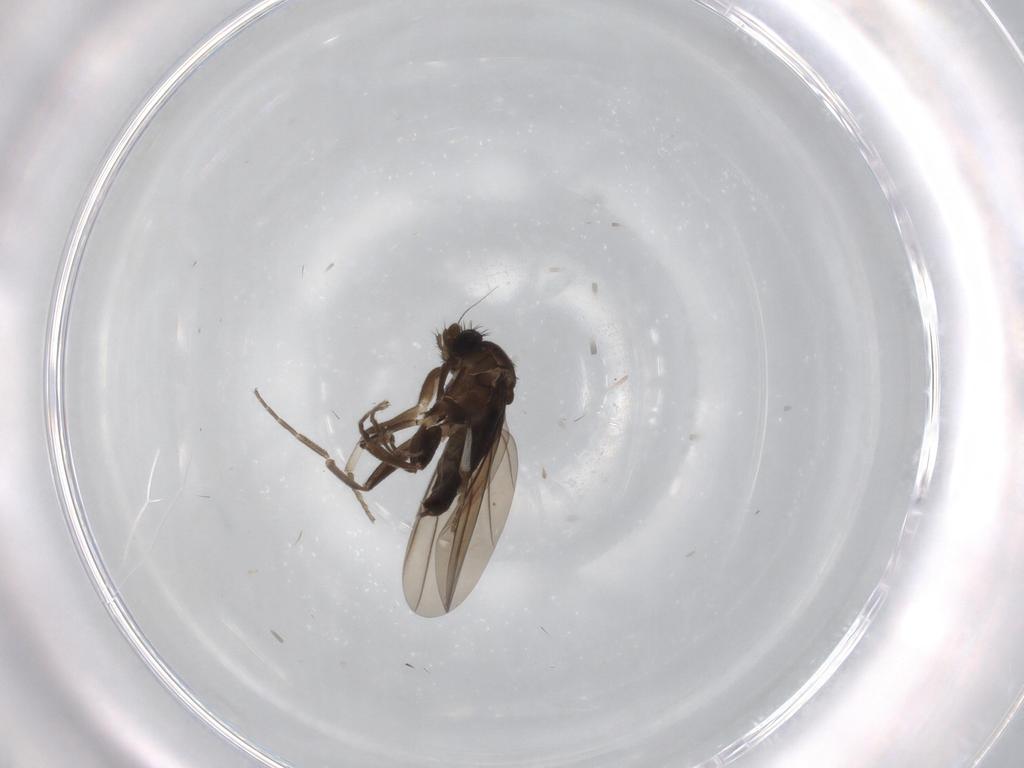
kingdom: Animalia
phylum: Arthropoda
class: Insecta
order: Diptera
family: Phoridae
